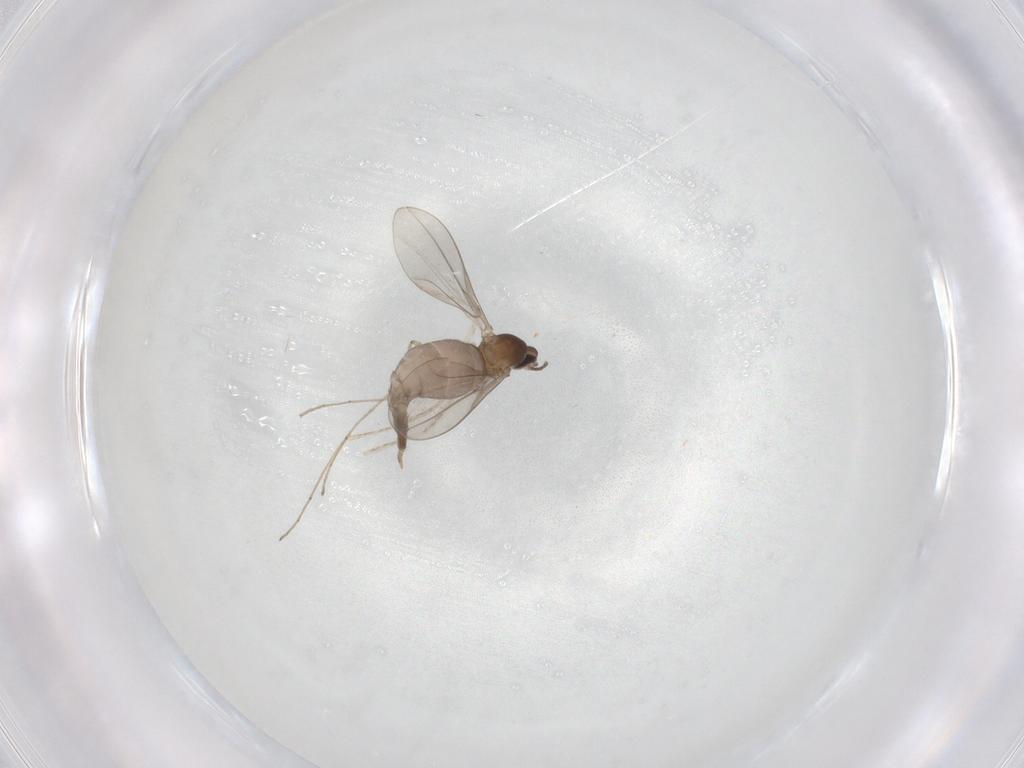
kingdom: Animalia
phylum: Arthropoda
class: Insecta
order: Diptera
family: Cecidomyiidae
